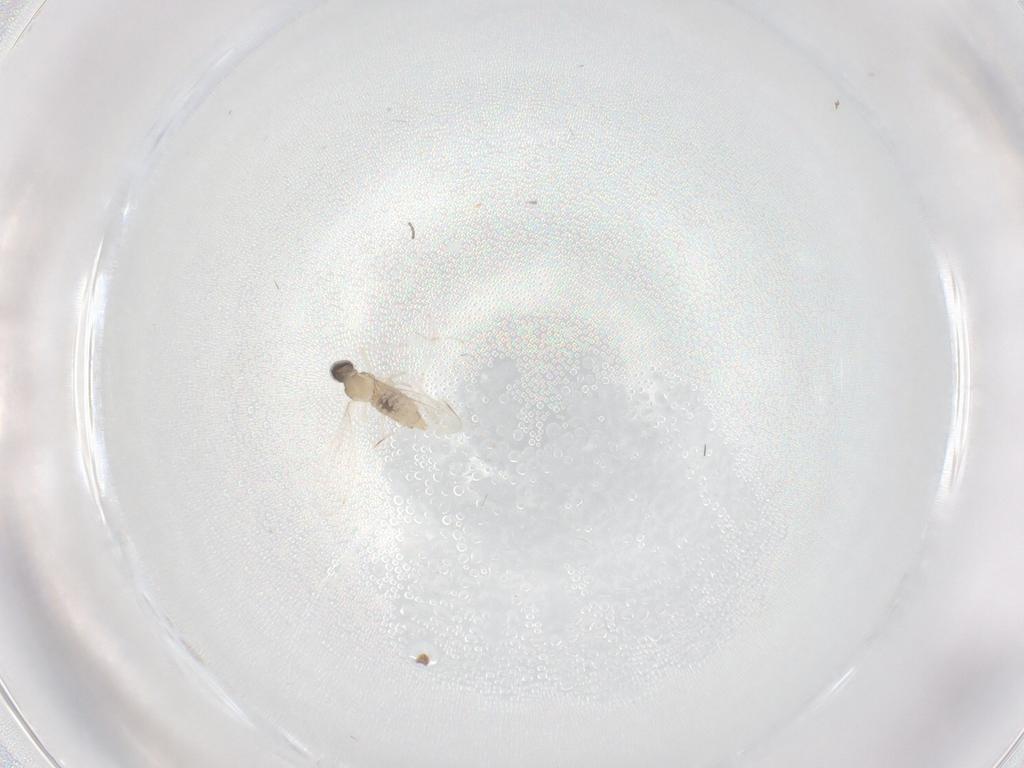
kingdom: Animalia
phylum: Arthropoda
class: Insecta
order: Diptera
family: Cecidomyiidae
